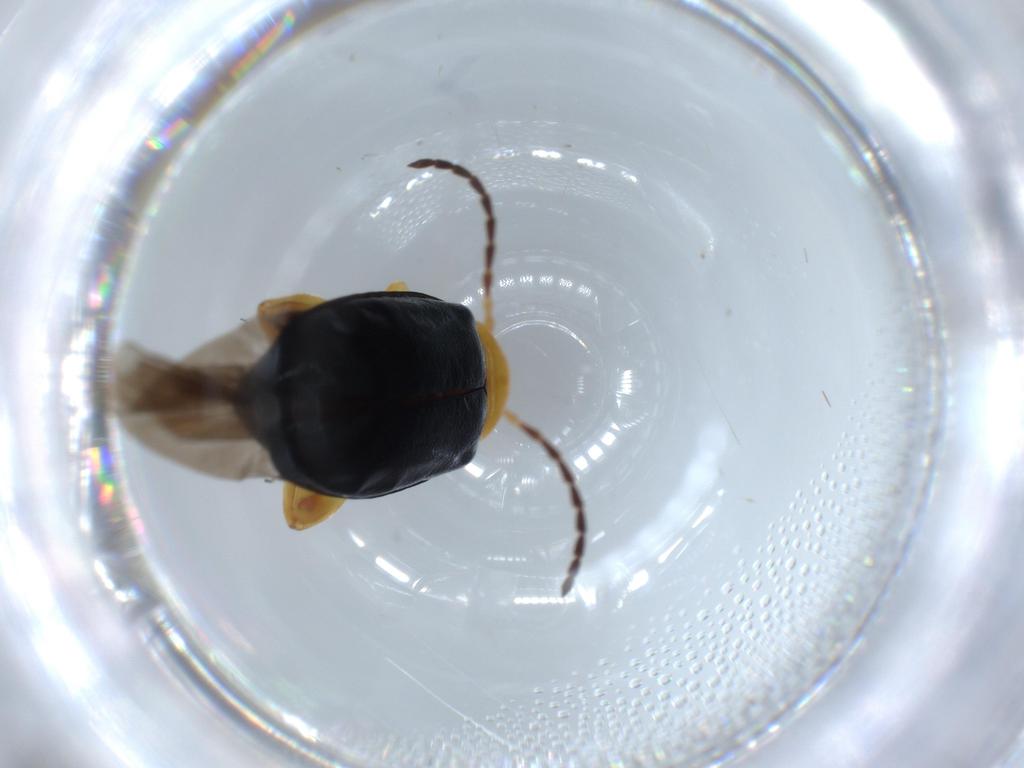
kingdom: Animalia
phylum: Arthropoda
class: Insecta
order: Coleoptera
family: Chrysomelidae
